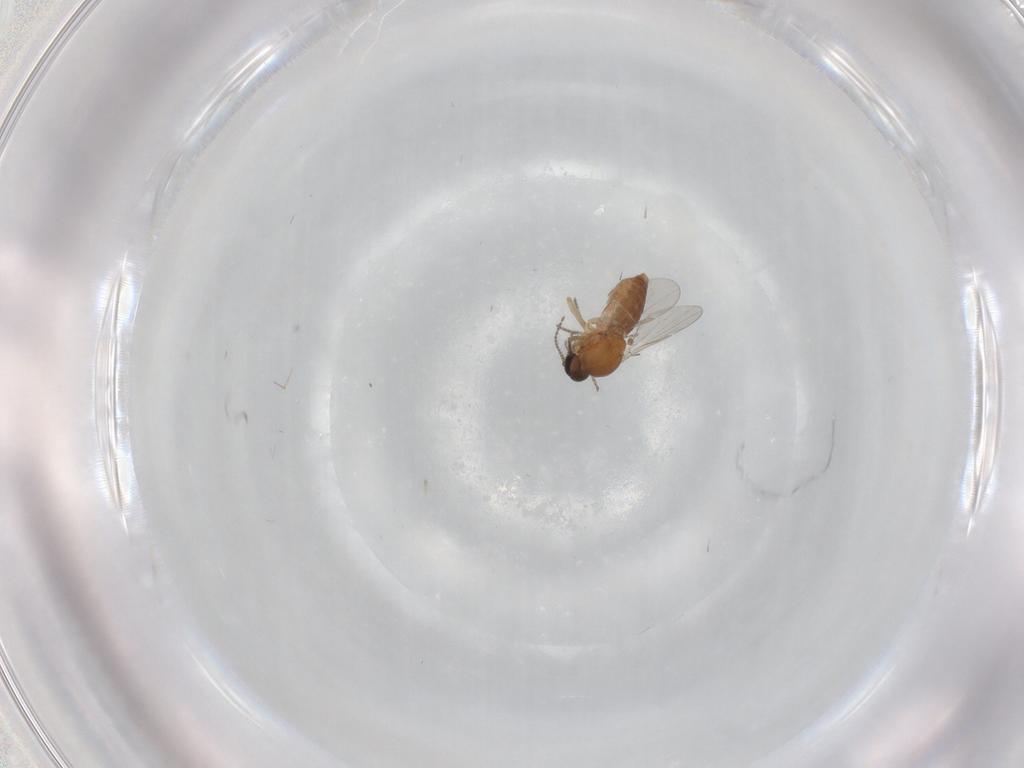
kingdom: Animalia
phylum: Arthropoda
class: Insecta
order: Diptera
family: Ceratopogonidae
